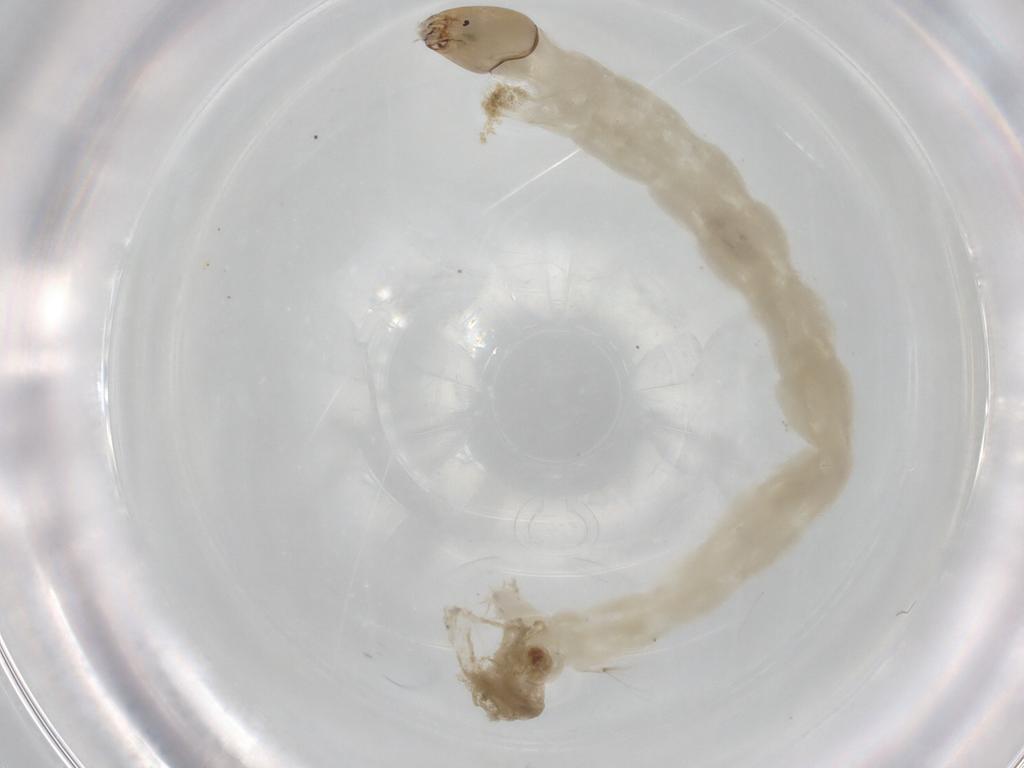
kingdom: Animalia
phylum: Arthropoda
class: Insecta
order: Diptera
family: Chironomidae
